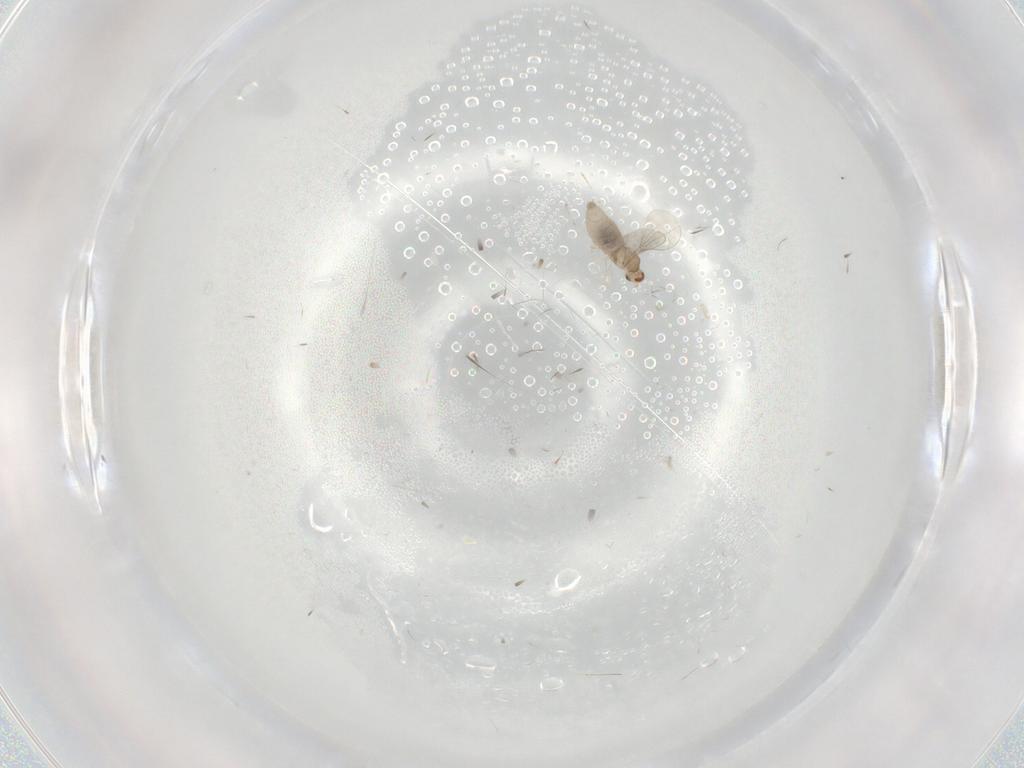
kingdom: Animalia
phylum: Arthropoda
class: Insecta
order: Diptera
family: Cecidomyiidae
